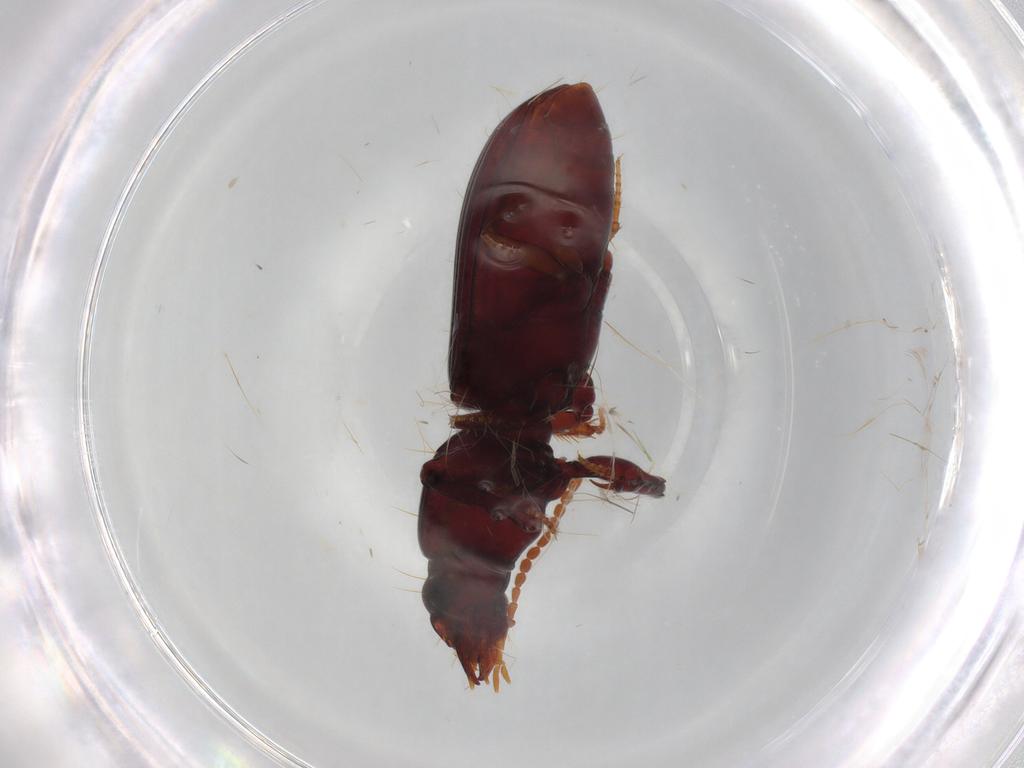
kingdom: Animalia
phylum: Arthropoda
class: Insecta
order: Coleoptera
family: Carabidae
